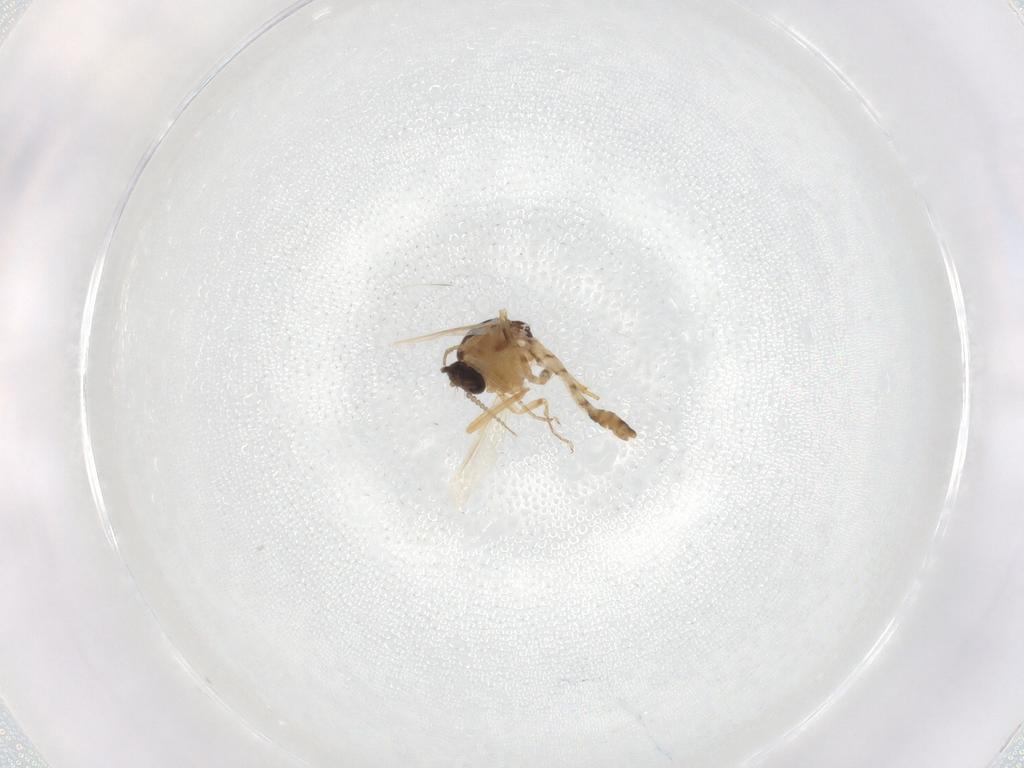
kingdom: Animalia
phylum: Arthropoda
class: Insecta
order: Diptera
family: Ceratopogonidae
